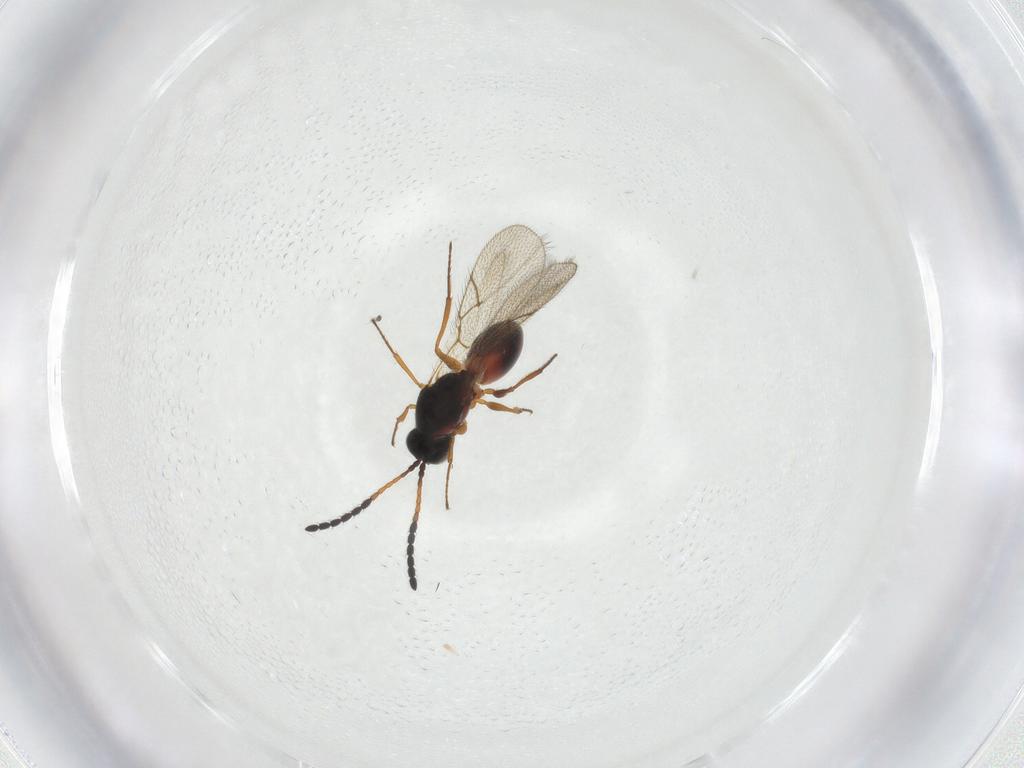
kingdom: Animalia
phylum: Arthropoda
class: Insecta
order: Hymenoptera
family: Figitidae
